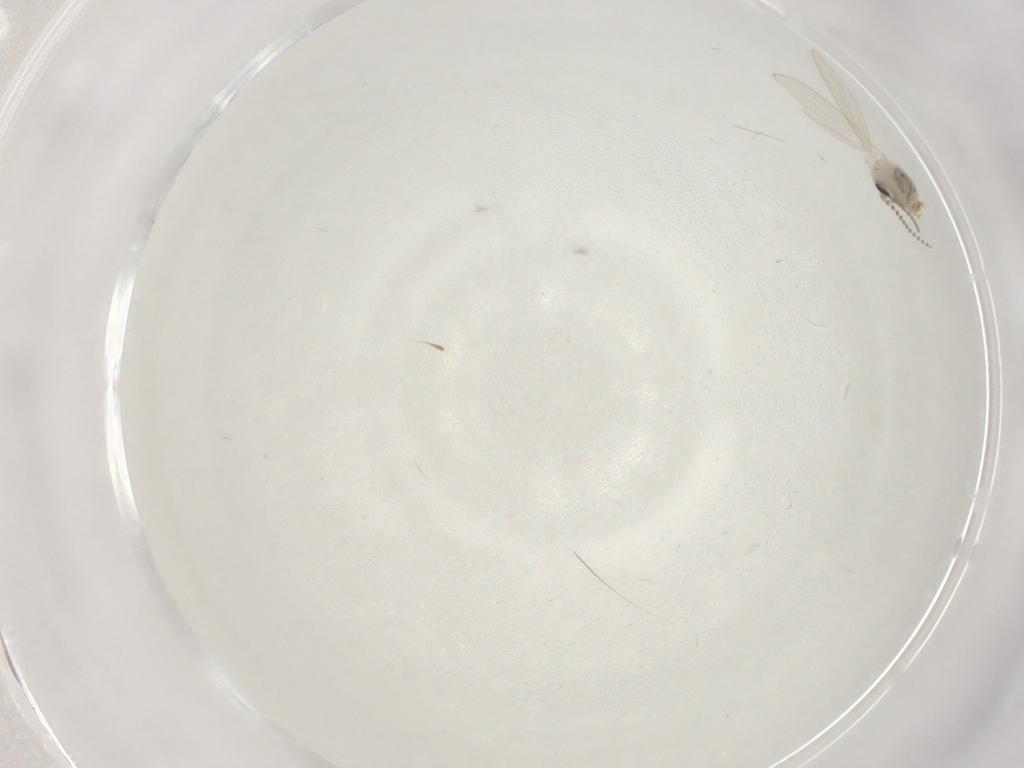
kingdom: Animalia
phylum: Arthropoda
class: Insecta
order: Diptera
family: Psychodidae
